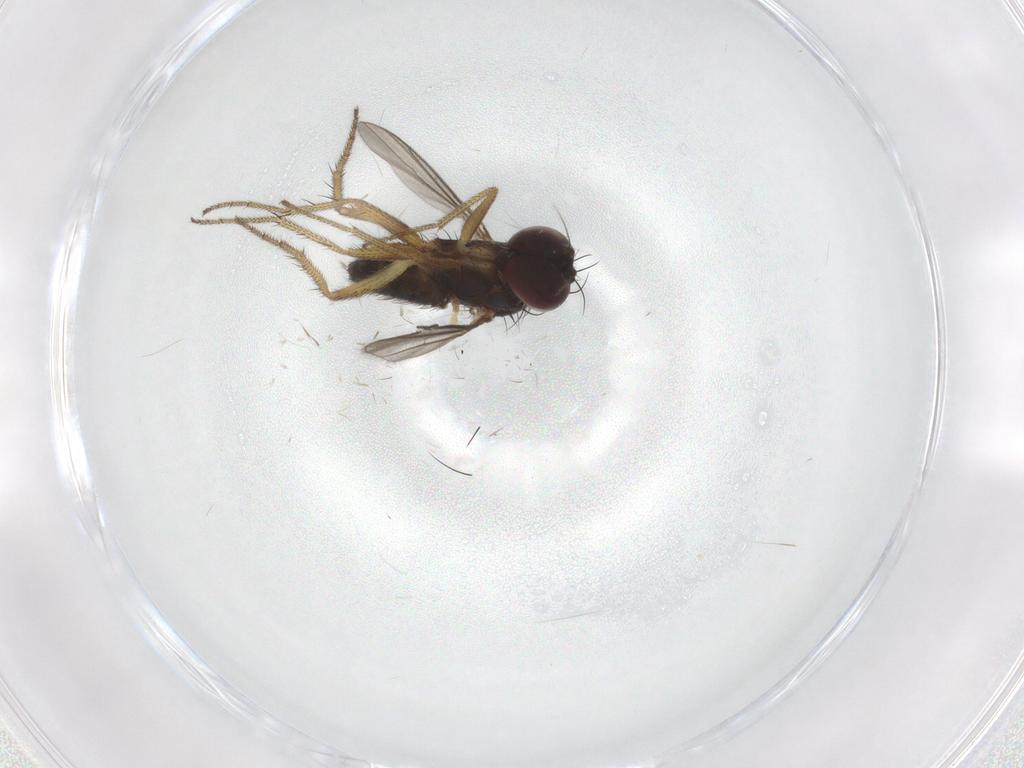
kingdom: Animalia
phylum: Arthropoda
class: Insecta
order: Diptera
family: Chironomidae
